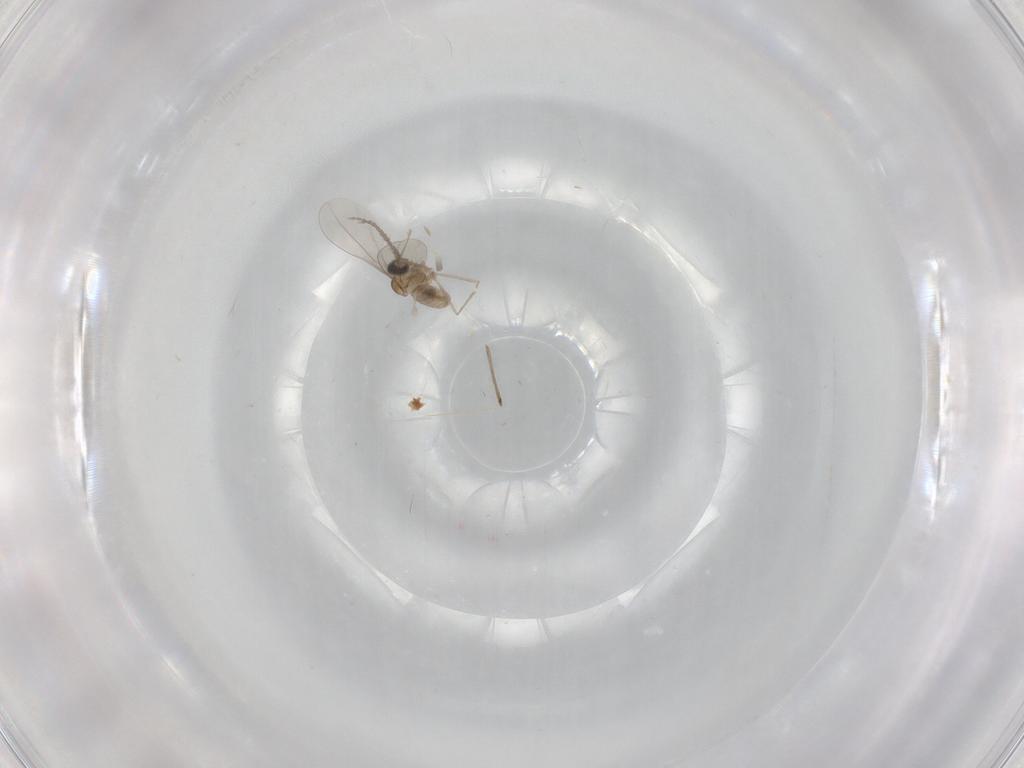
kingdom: Animalia
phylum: Arthropoda
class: Insecta
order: Diptera
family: Cecidomyiidae
